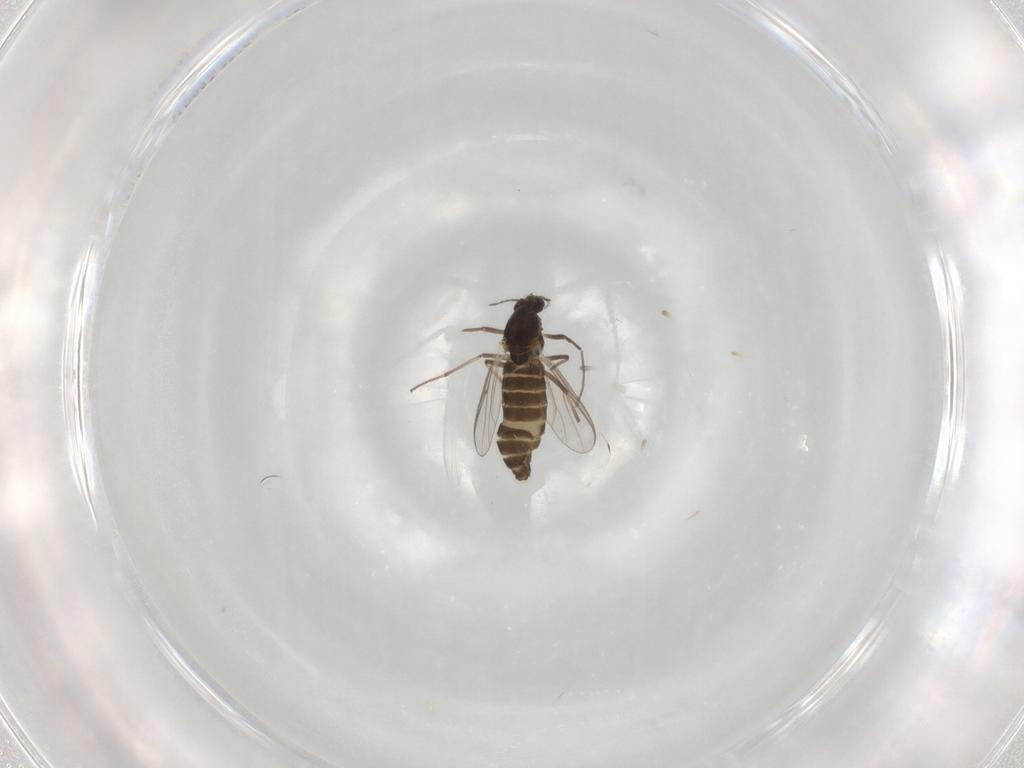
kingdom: Animalia
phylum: Arthropoda
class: Insecta
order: Diptera
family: Chironomidae
